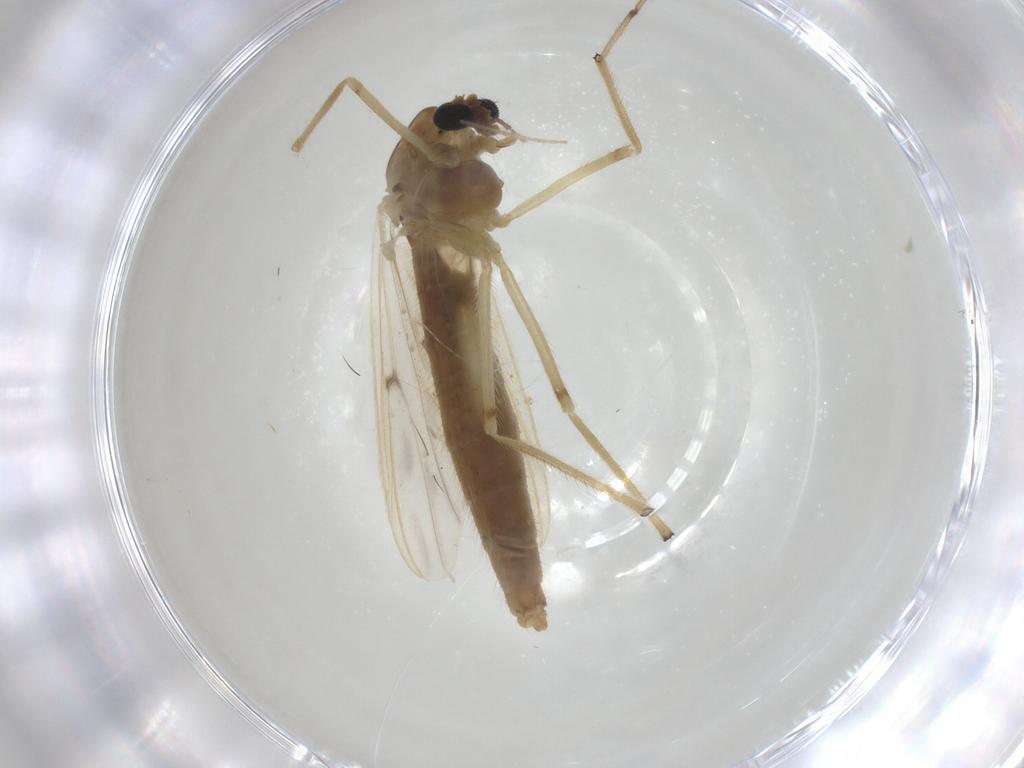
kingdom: Animalia
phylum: Arthropoda
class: Insecta
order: Diptera
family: Chironomidae
